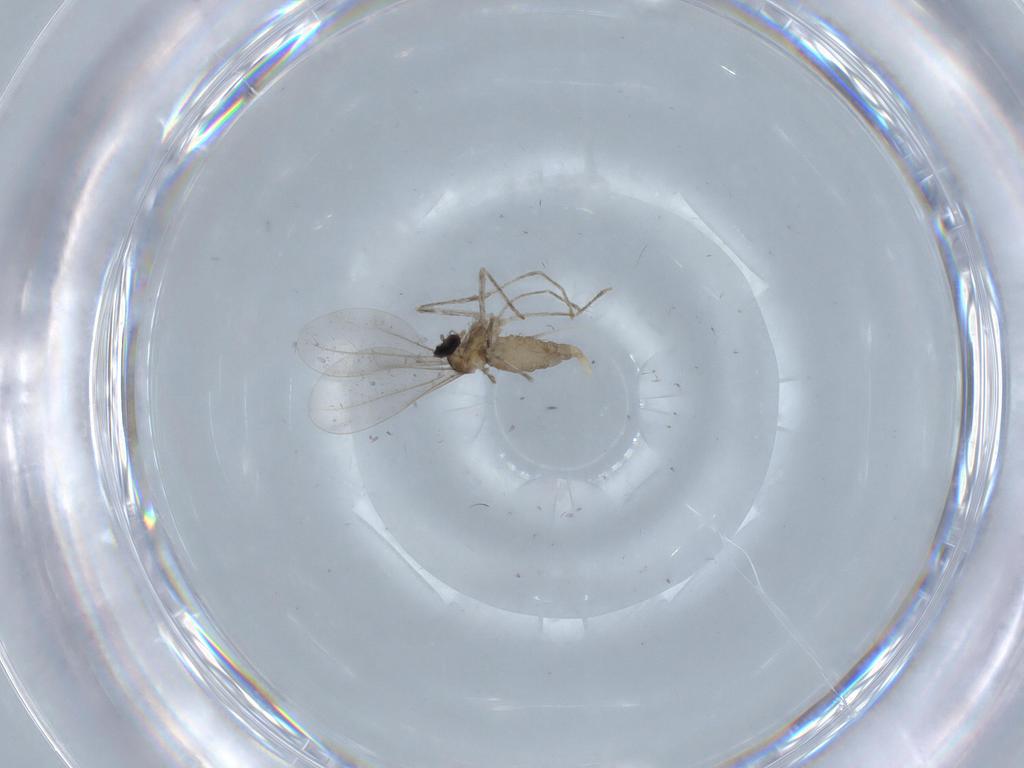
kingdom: Animalia
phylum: Arthropoda
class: Insecta
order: Diptera
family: Cecidomyiidae
